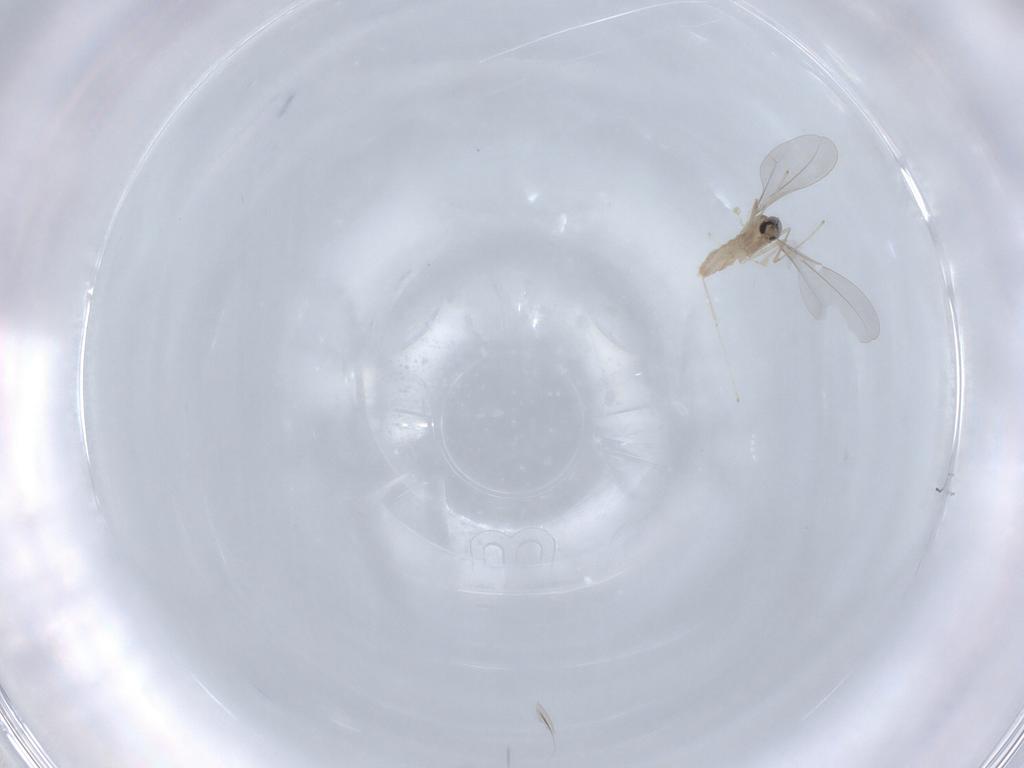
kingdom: Animalia
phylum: Arthropoda
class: Insecta
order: Diptera
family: Cecidomyiidae
